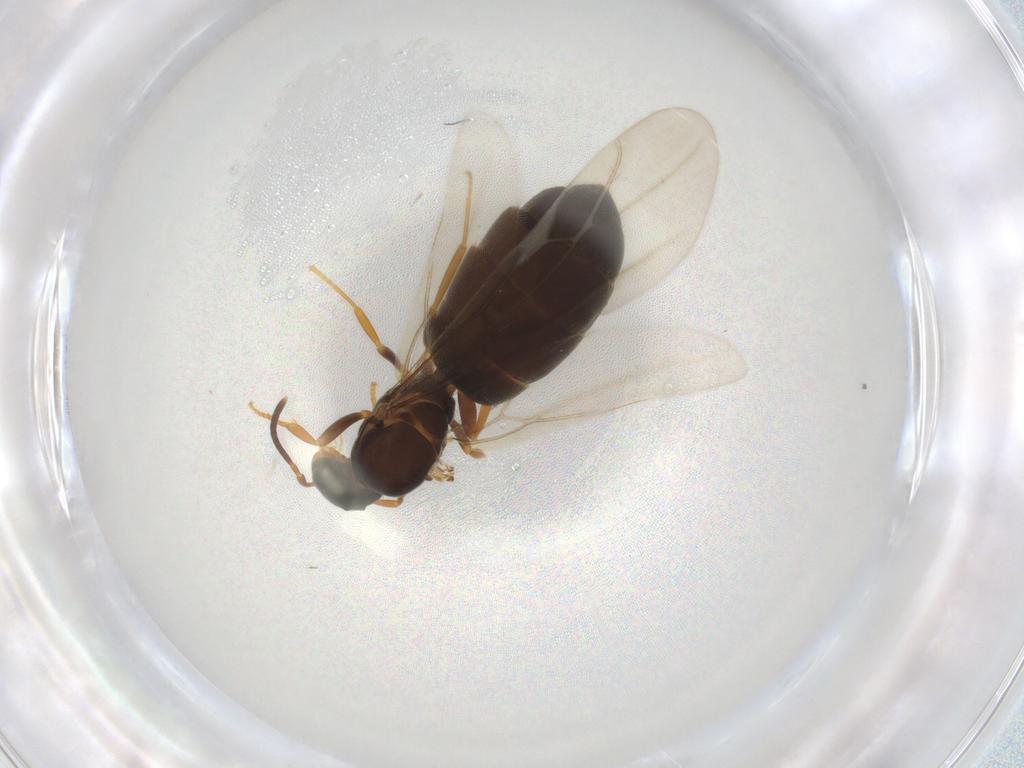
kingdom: Animalia
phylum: Arthropoda
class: Insecta
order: Hymenoptera
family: Formicidae
